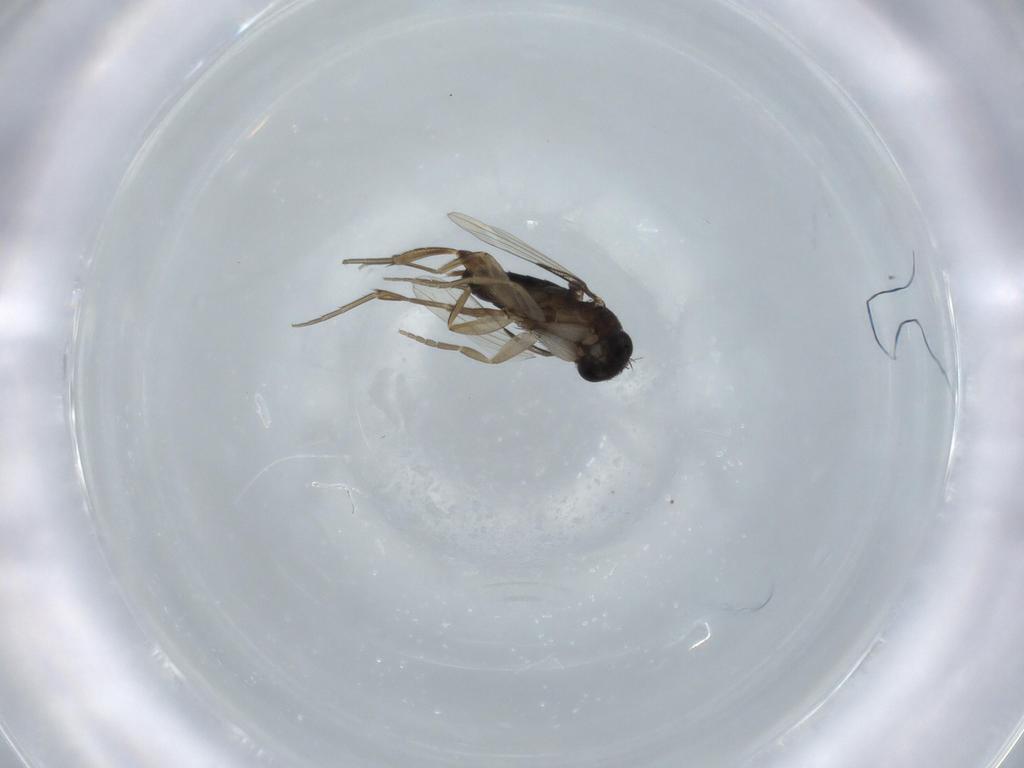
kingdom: Animalia
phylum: Arthropoda
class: Insecta
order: Diptera
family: Phoridae
